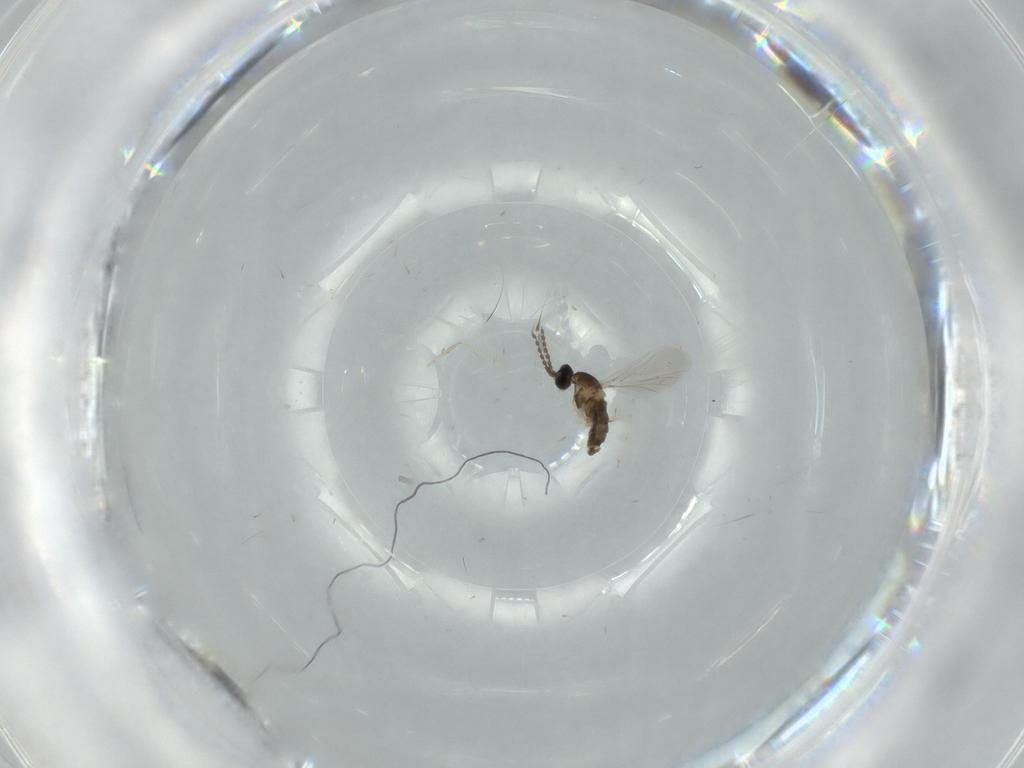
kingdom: Animalia
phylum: Arthropoda
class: Insecta
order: Diptera
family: Cecidomyiidae
